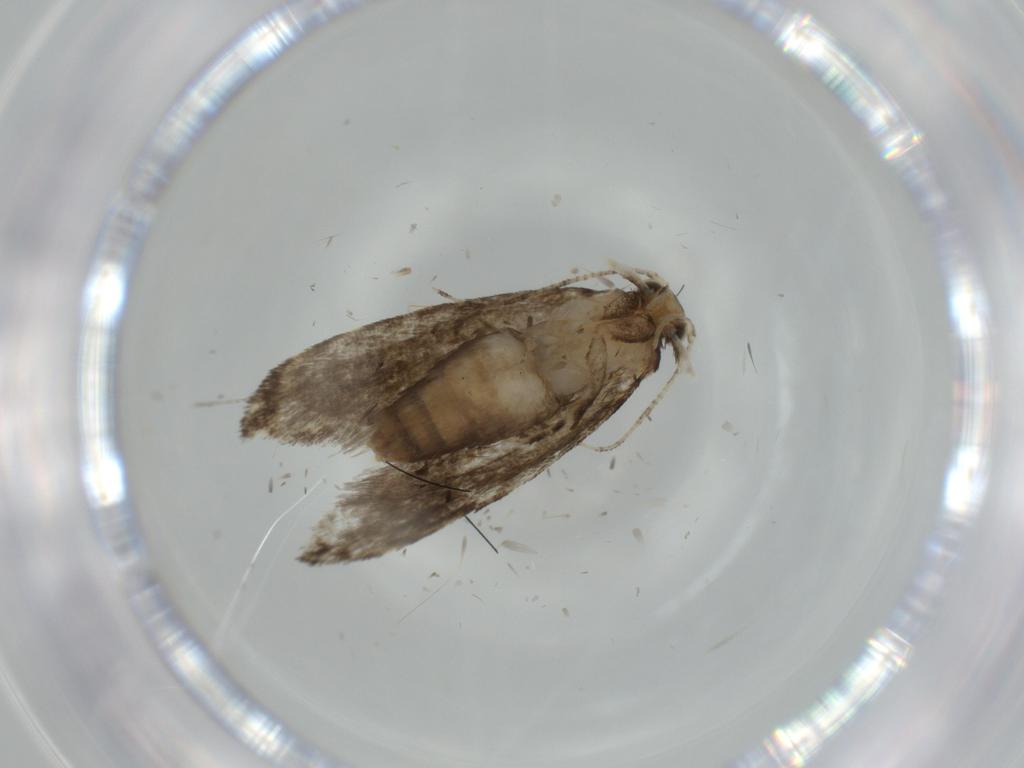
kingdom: Animalia
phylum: Arthropoda
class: Insecta
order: Lepidoptera
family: Tineidae
